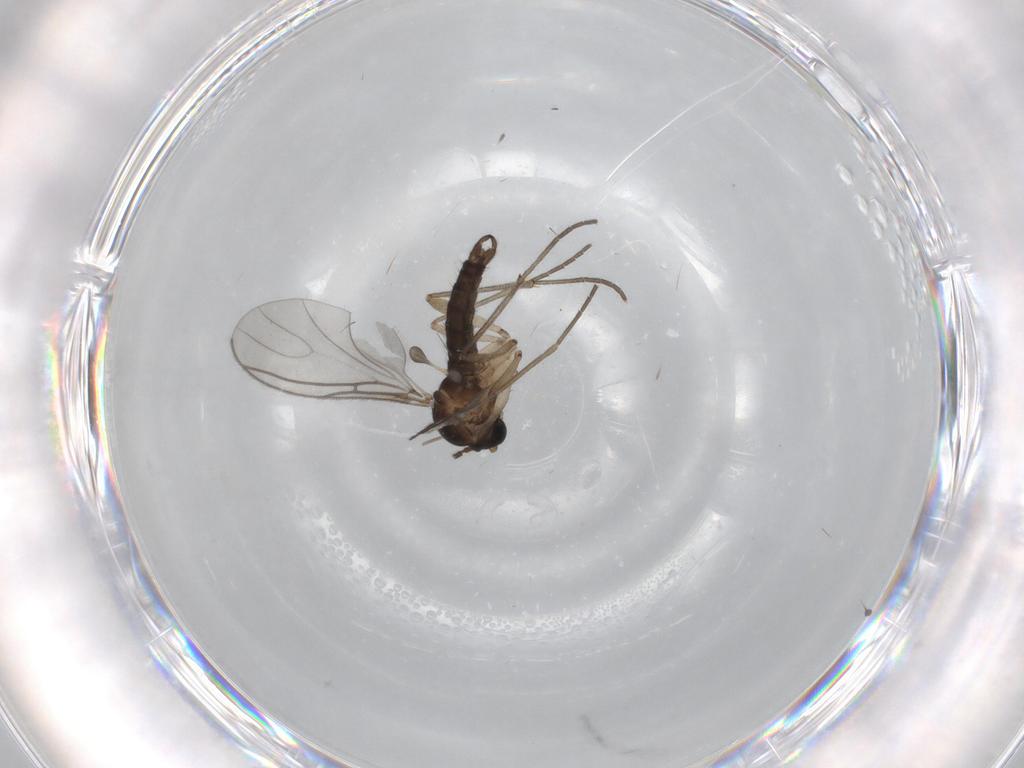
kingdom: Animalia
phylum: Arthropoda
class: Insecta
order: Diptera
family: Sciaridae
